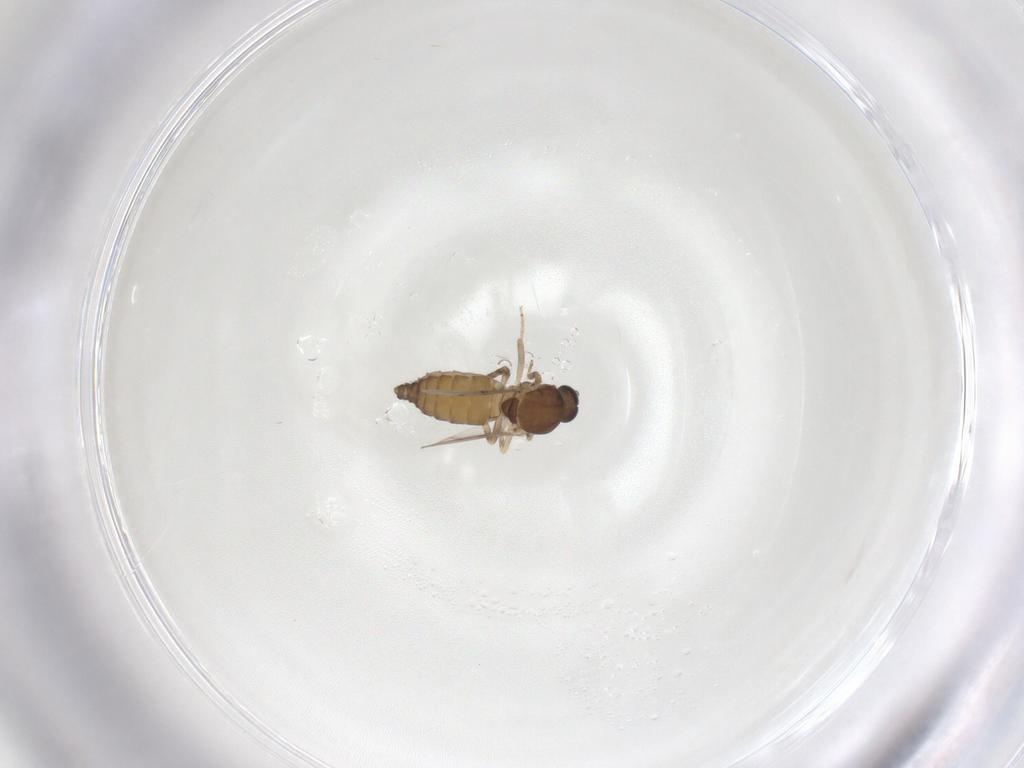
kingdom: Animalia
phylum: Arthropoda
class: Insecta
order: Diptera
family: Ceratopogonidae
